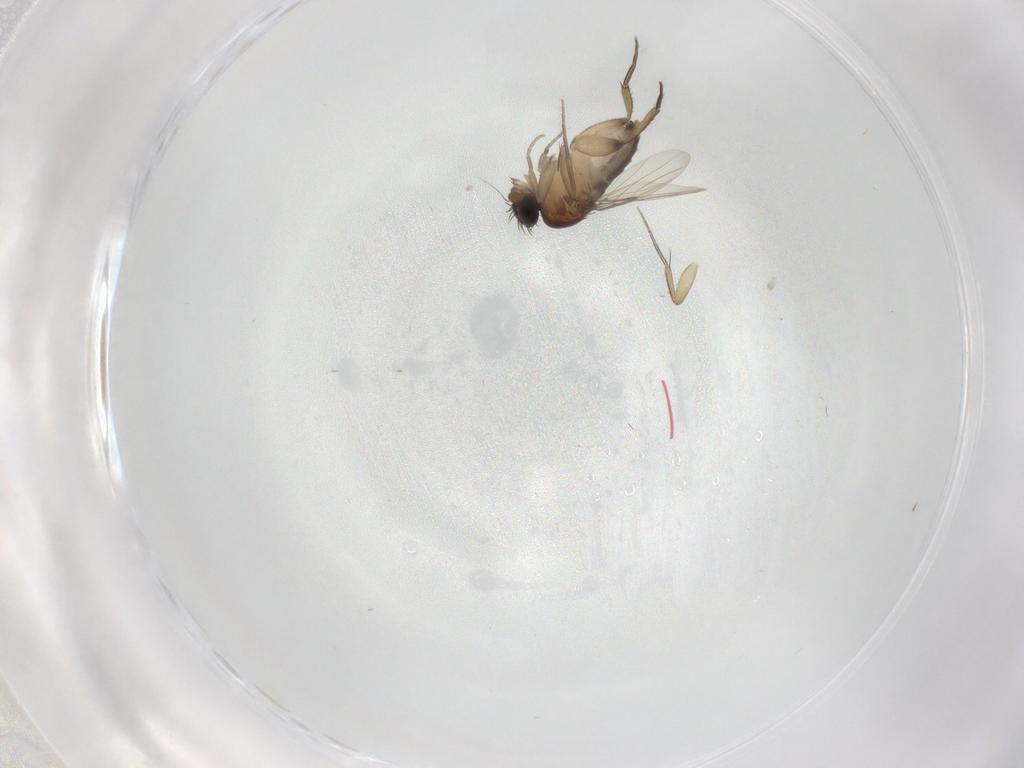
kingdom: Animalia
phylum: Arthropoda
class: Insecta
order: Diptera
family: Phoridae
